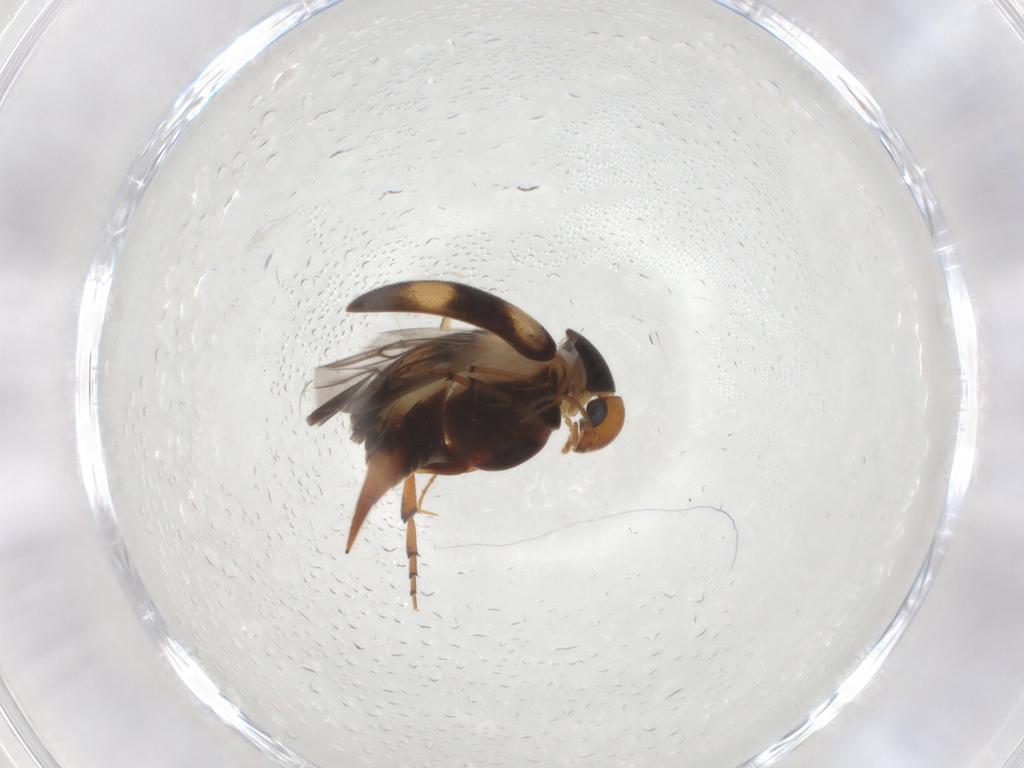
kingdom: Animalia
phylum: Arthropoda
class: Insecta
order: Coleoptera
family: Mordellidae
